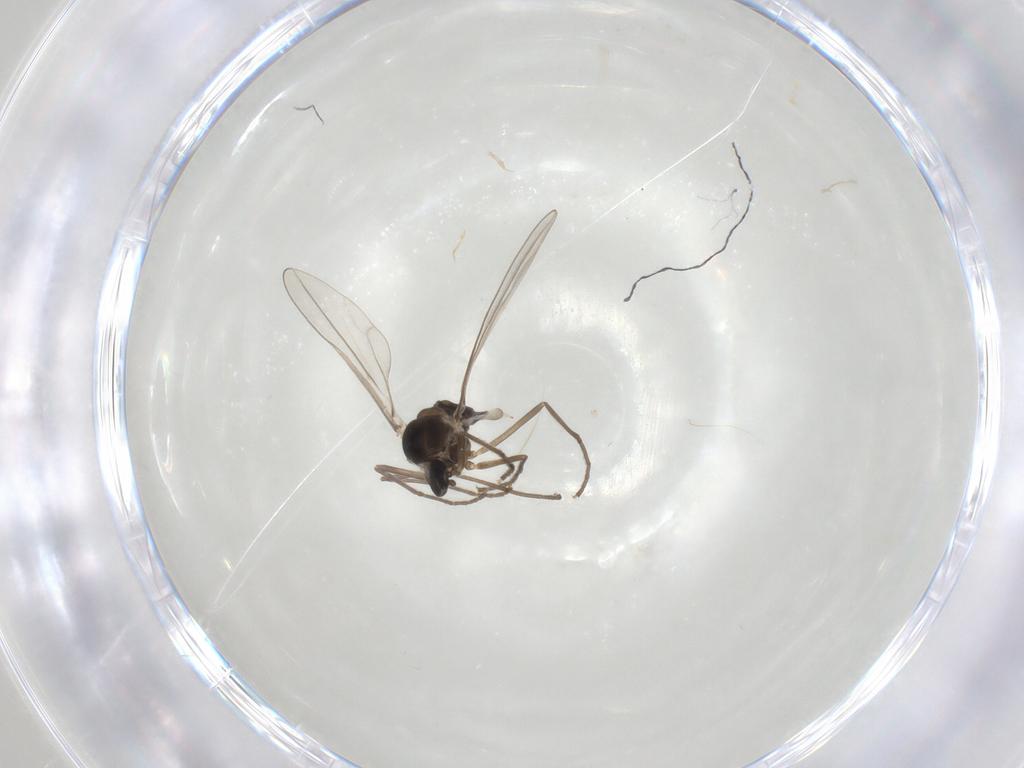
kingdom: Animalia
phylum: Arthropoda
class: Insecta
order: Diptera
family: Cecidomyiidae
